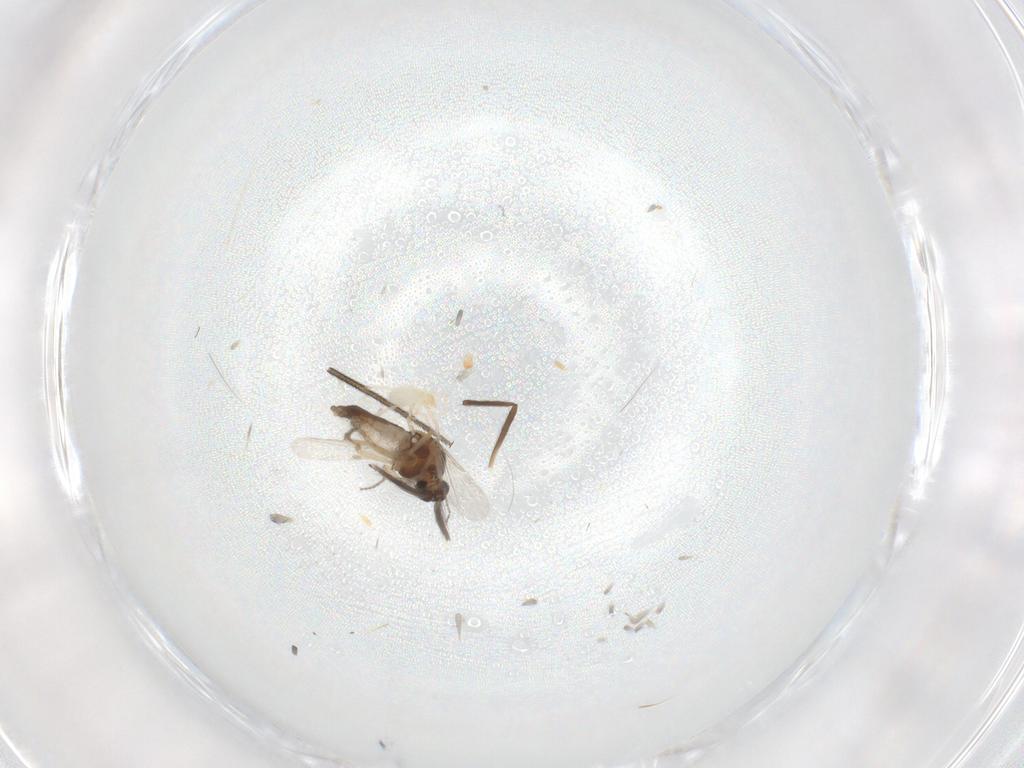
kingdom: Animalia
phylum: Arthropoda
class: Insecta
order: Diptera
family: Ceratopogonidae
